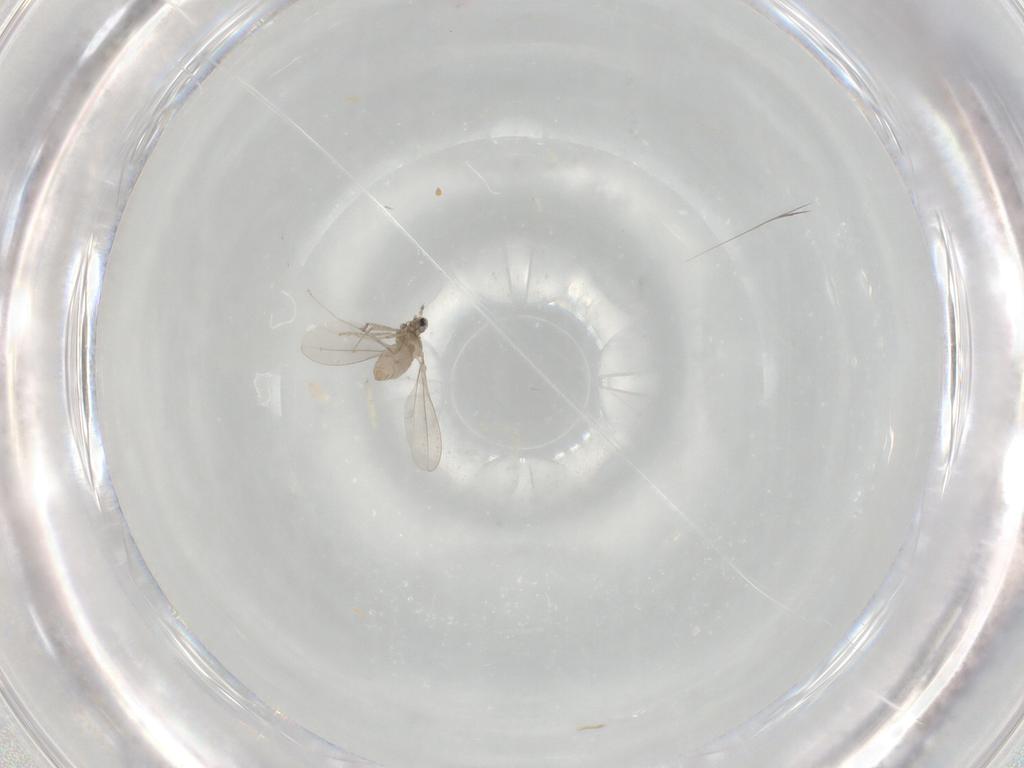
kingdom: Animalia
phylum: Arthropoda
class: Insecta
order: Diptera
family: Cecidomyiidae
